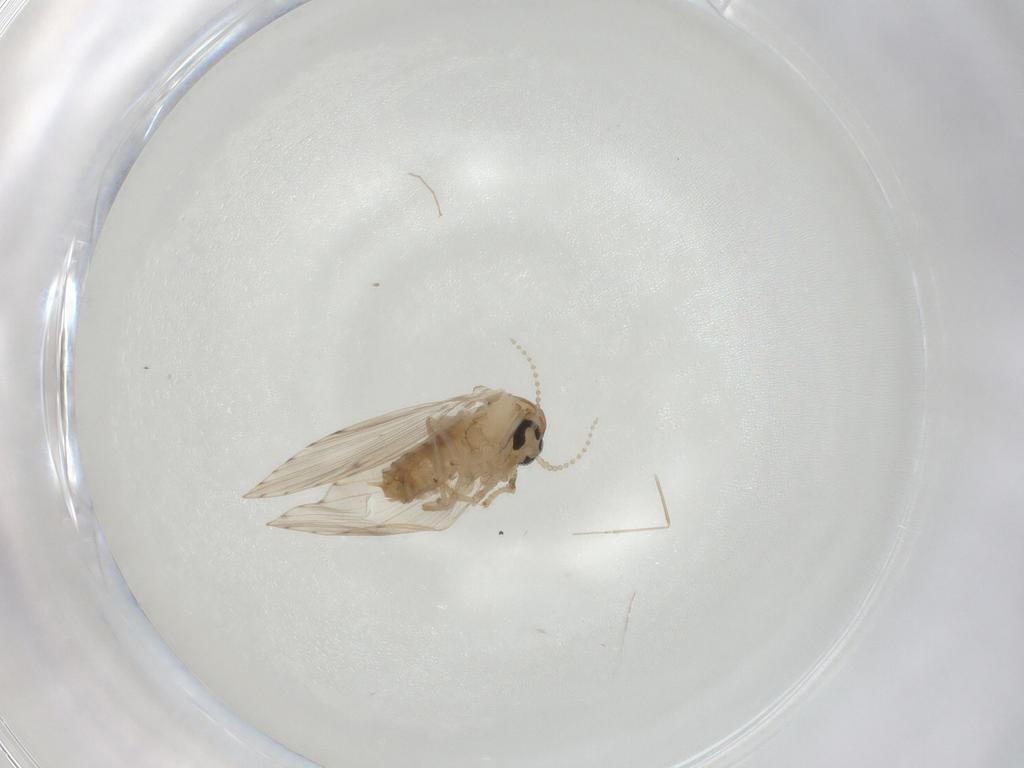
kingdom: Animalia
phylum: Arthropoda
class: Insecta
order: Diptera
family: Psychodidae
